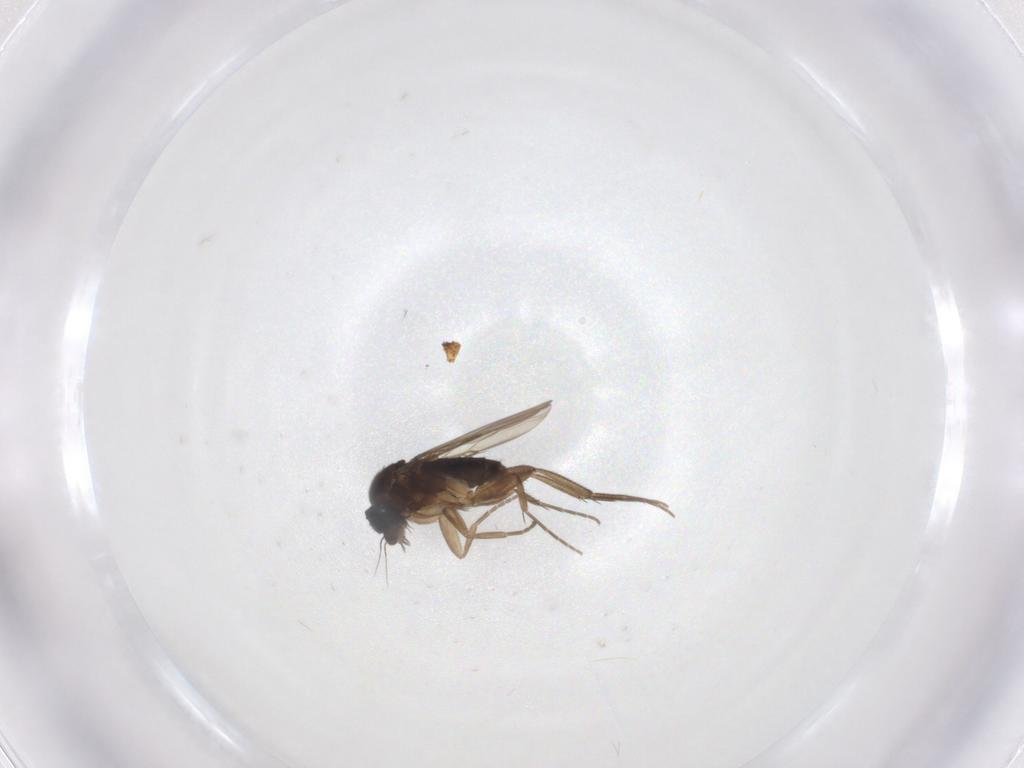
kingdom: Animalia
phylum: Arthropoda
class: Insecta
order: Diptera
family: Phoridae
